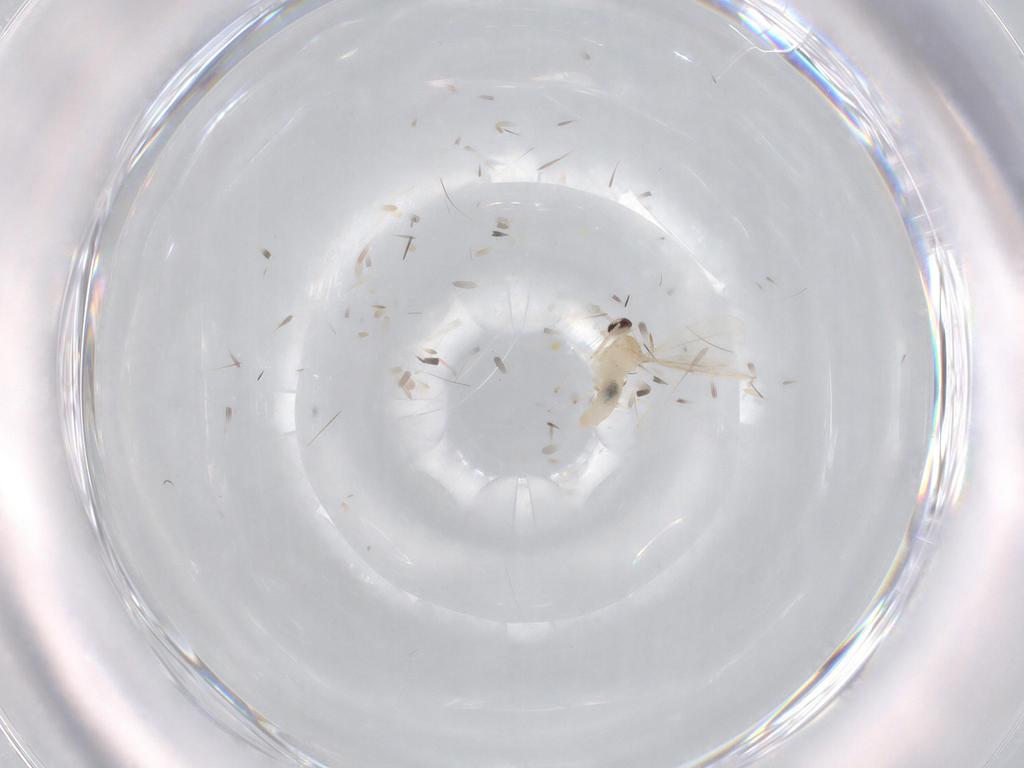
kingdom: Animalia
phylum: Arthropoda
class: Insecta
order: Diptera
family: Cecidomyiidae
